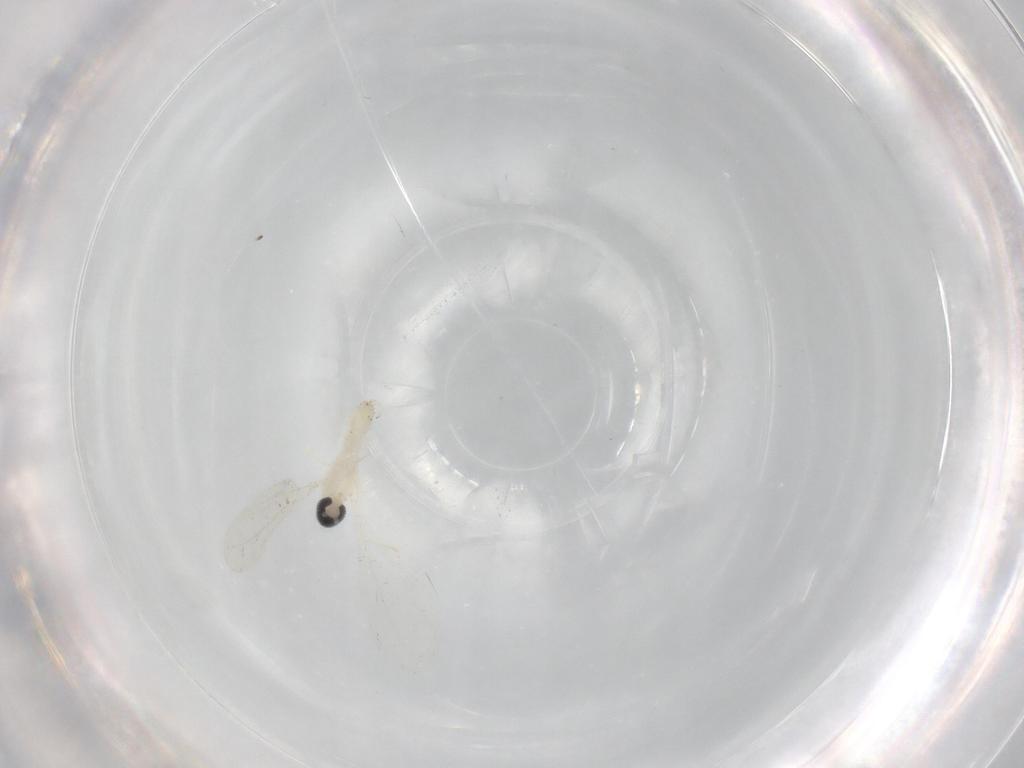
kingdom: Animalia
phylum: Arthropoda
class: Insecta
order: Diptera
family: Cecidomyiidae
